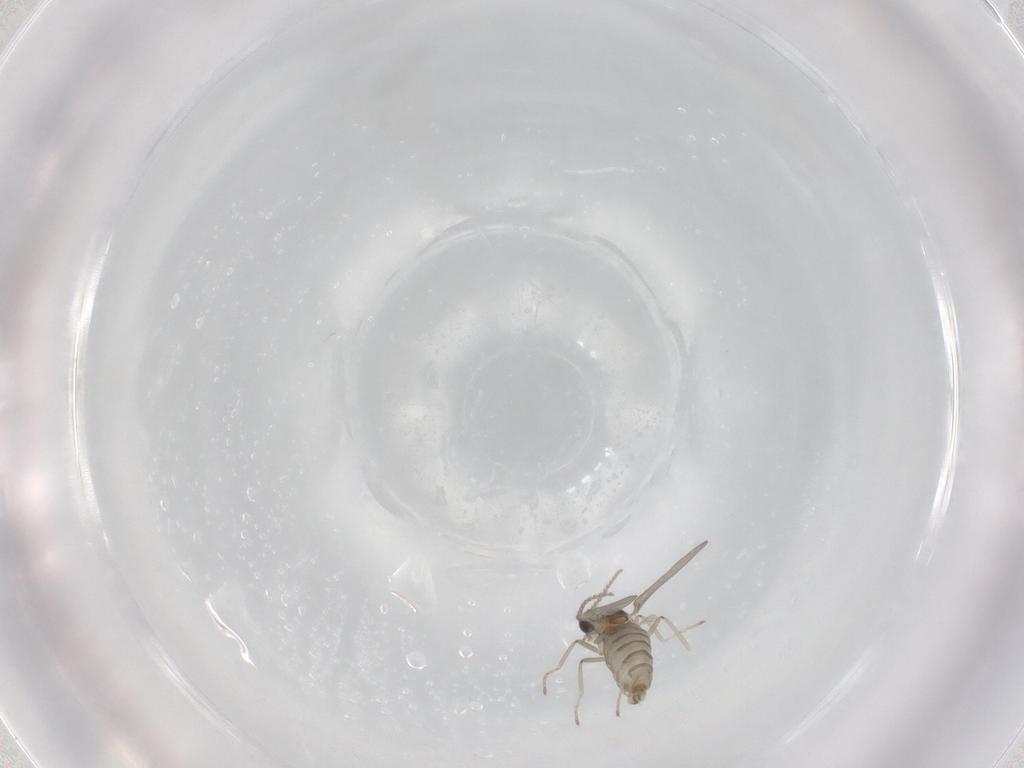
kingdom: Animalia
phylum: Arthropoda
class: Insecta
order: Diptera
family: Cecidomyiidae
